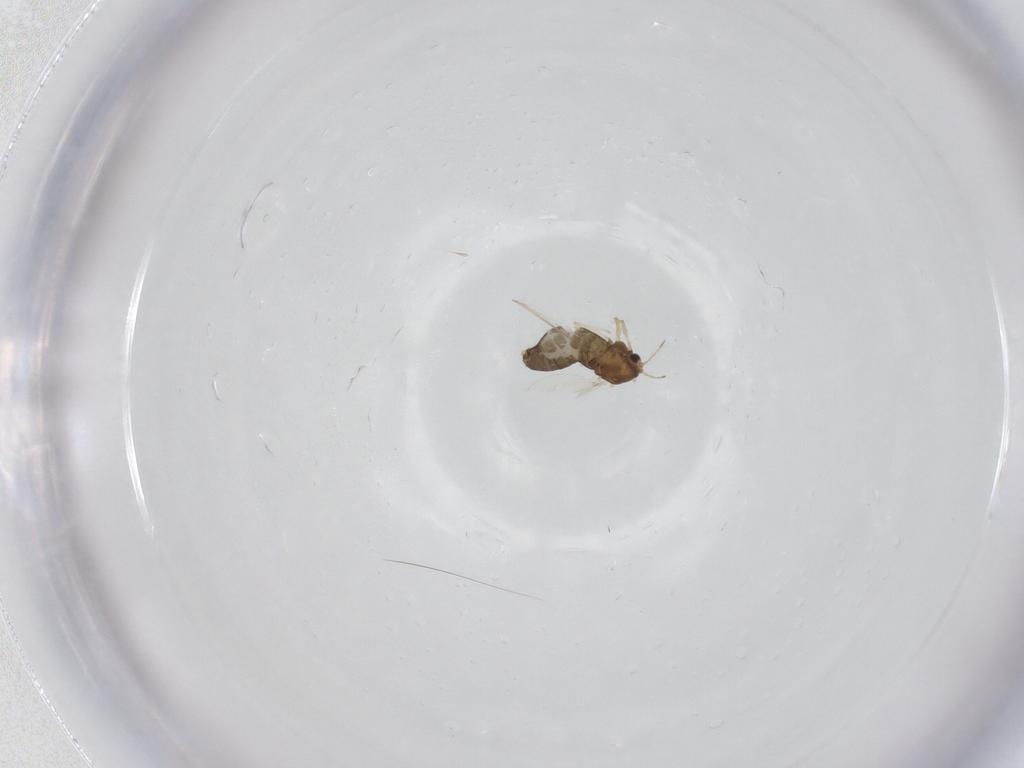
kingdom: Animalia
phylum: Arthropoda
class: Insecta
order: Diptera
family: Chironomidae
